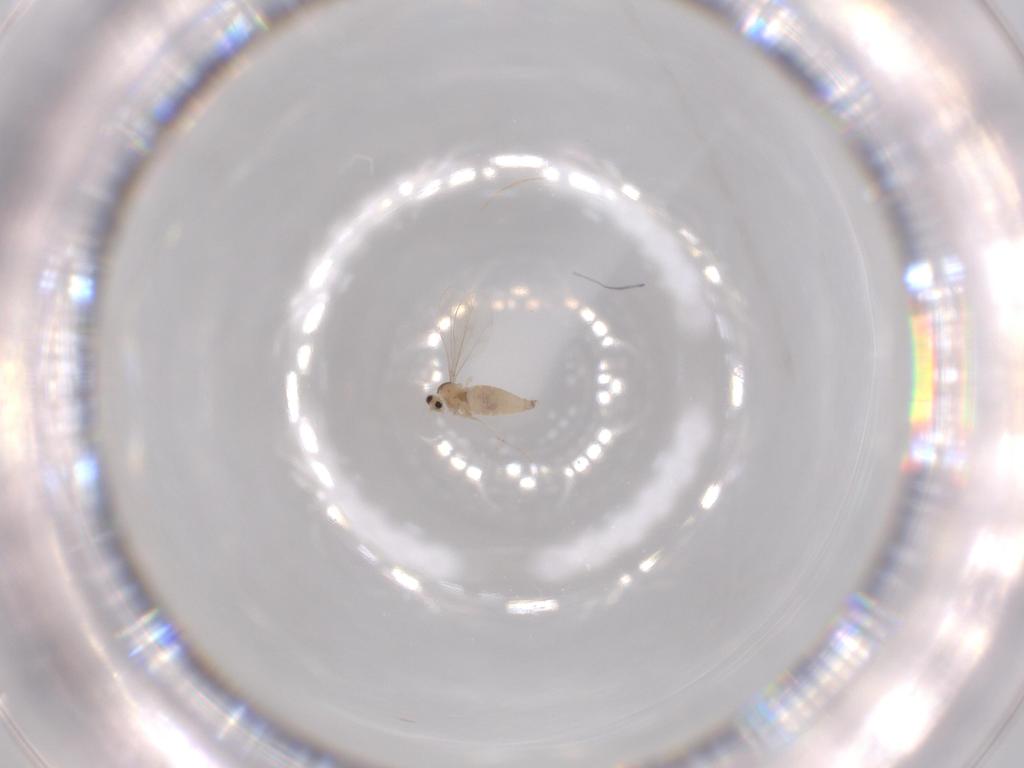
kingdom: Animalia
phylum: Arthropoda
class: Insecta
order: Diptera
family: Cecidomyiidae
